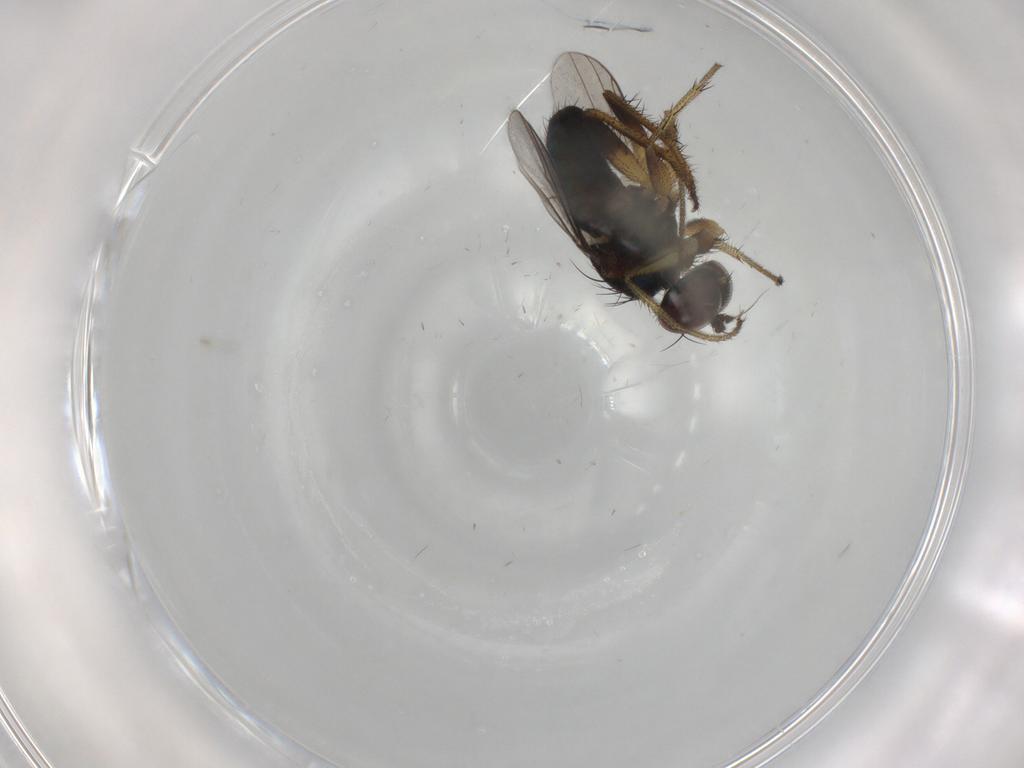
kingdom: Animalia
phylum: Arthropoda
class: Insecta
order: Diptera
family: Dolichopodidae
